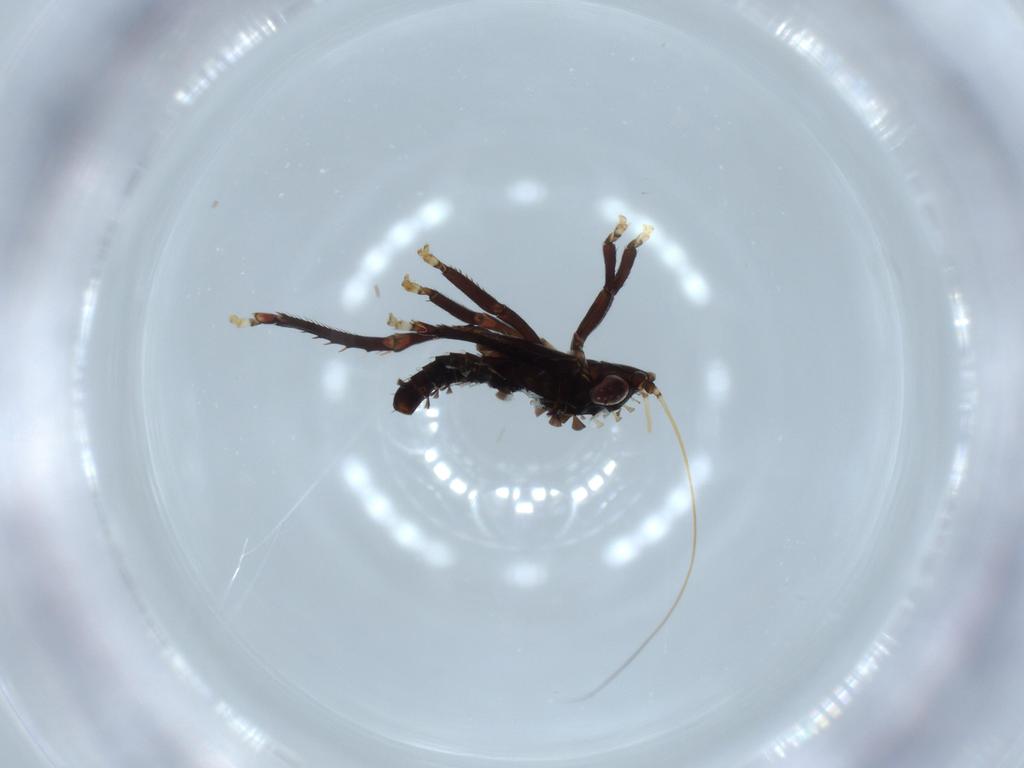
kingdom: Animalia
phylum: Arthropoda
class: Insecta
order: Hemiptera
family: Cicadellidae
